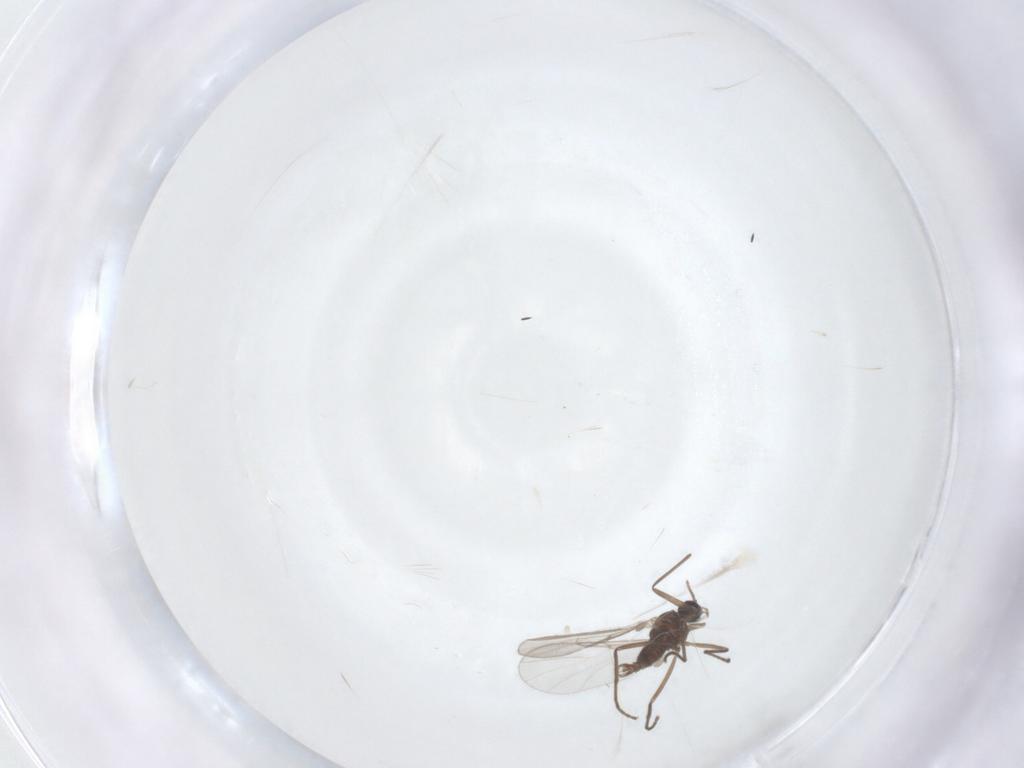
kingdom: Animalia
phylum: Arthropoda
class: Insecta
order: Diptera
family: Cecidomyiidae
